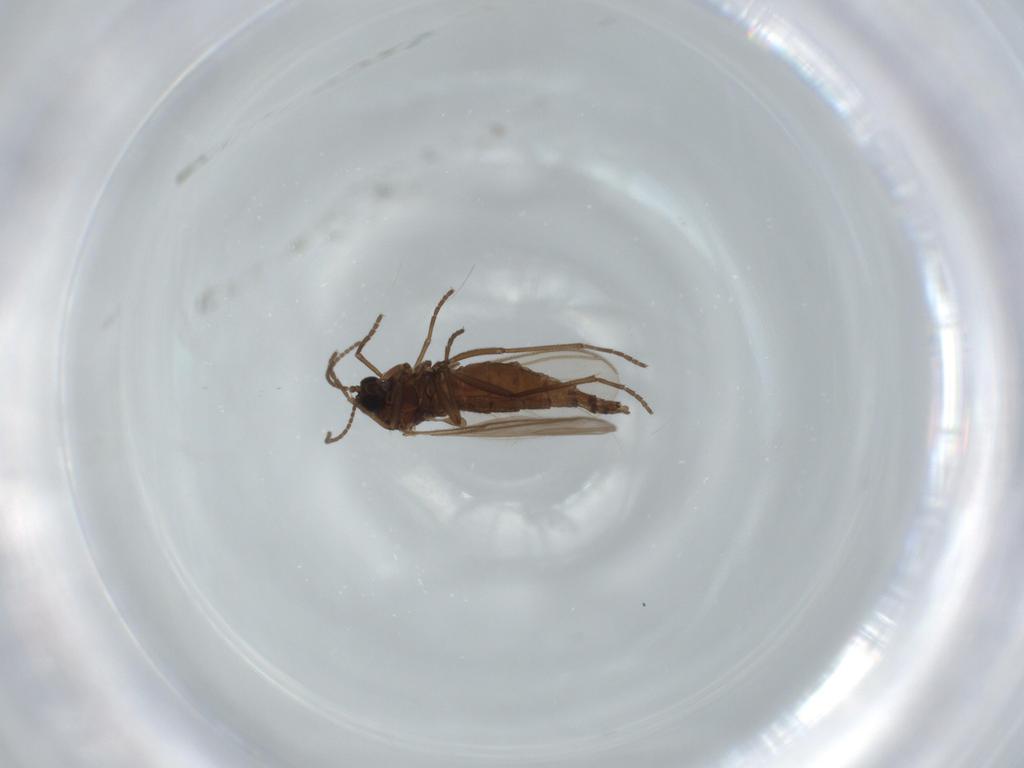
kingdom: Animalia
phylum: Arthropoda
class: Insecta
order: Diptera
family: Sciaridae
